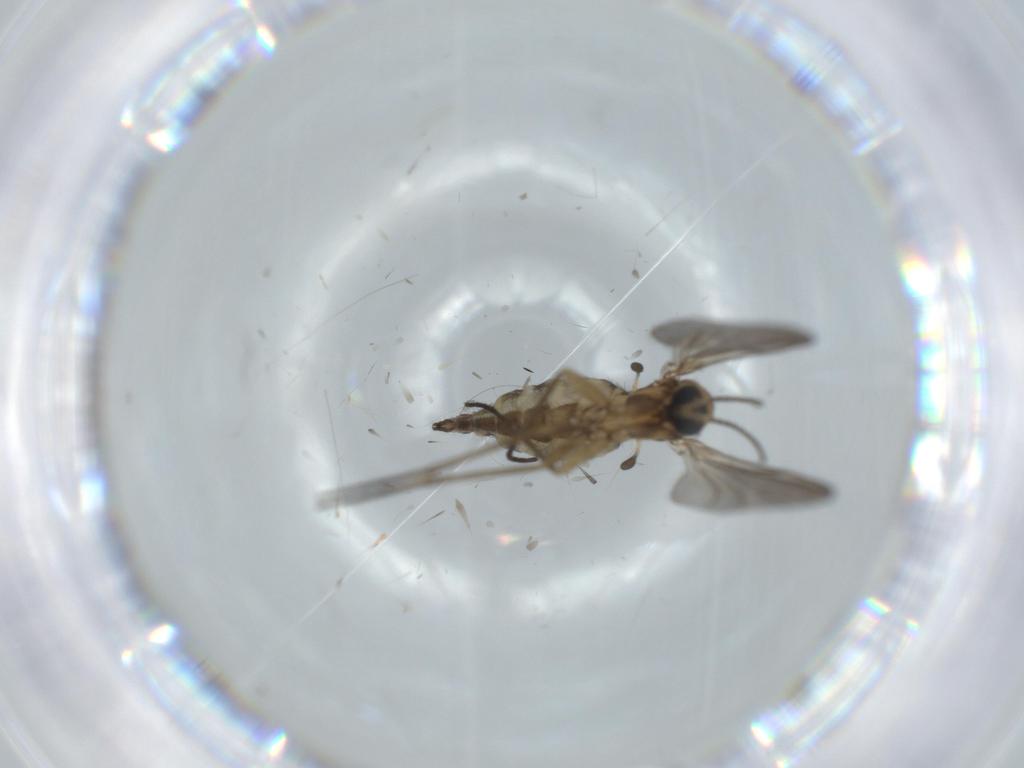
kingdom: Animalia
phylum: Arthropoda
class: Insecta
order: Diptera
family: Sciaridae
